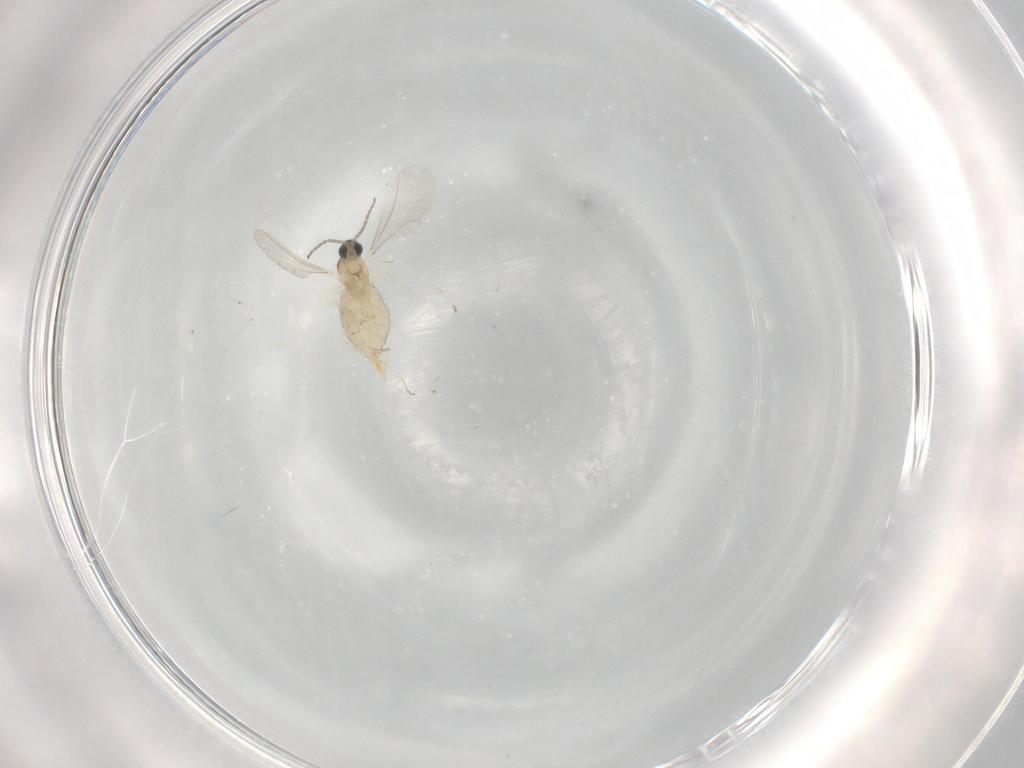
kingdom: Animalia
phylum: Arthropoda
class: Insecta
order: Diptera
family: Cecidomyiidae
